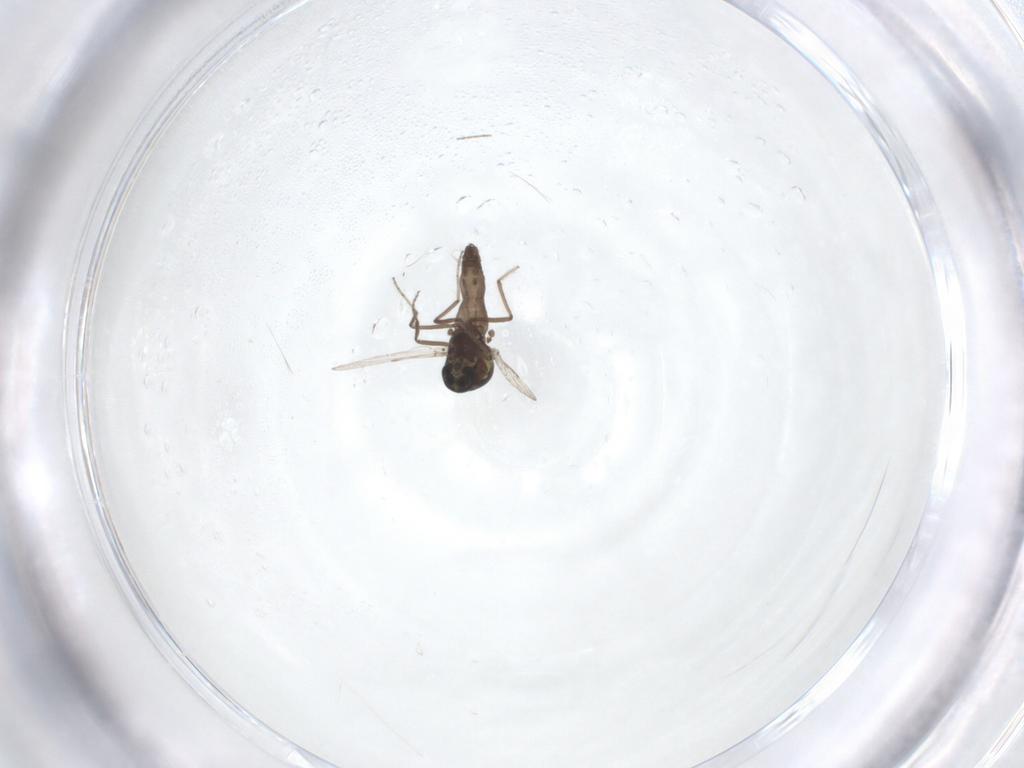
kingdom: Animalia
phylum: Arthropoda
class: Insecta
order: Diptera
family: Ceratopogonidae
